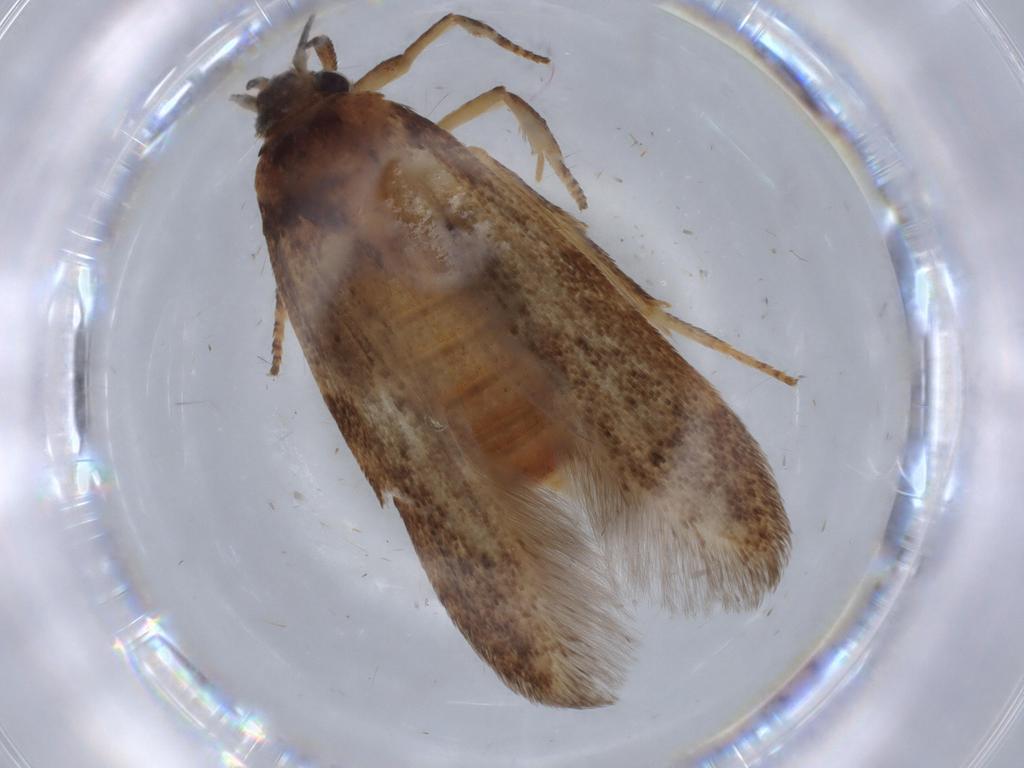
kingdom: Animalia
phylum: Arthropoda
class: Insecta
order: Lepidoptera
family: Blastobasidae
